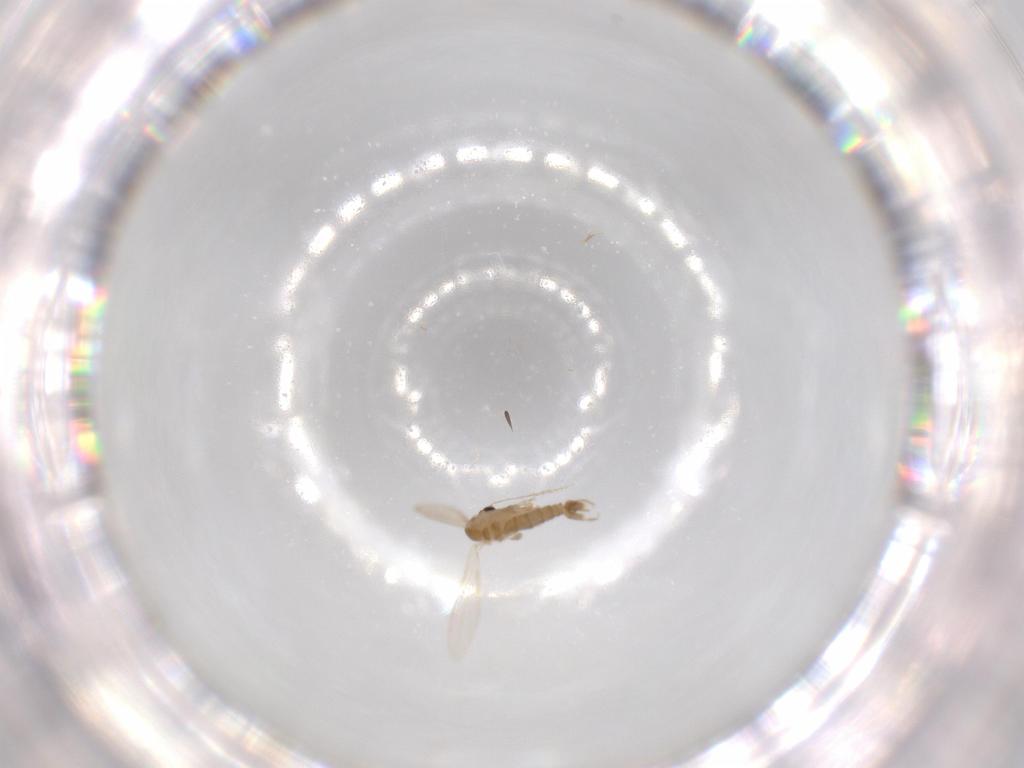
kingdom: Animalia
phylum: Arthropoda
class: Insecta
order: Diptera
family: Psychodidae
